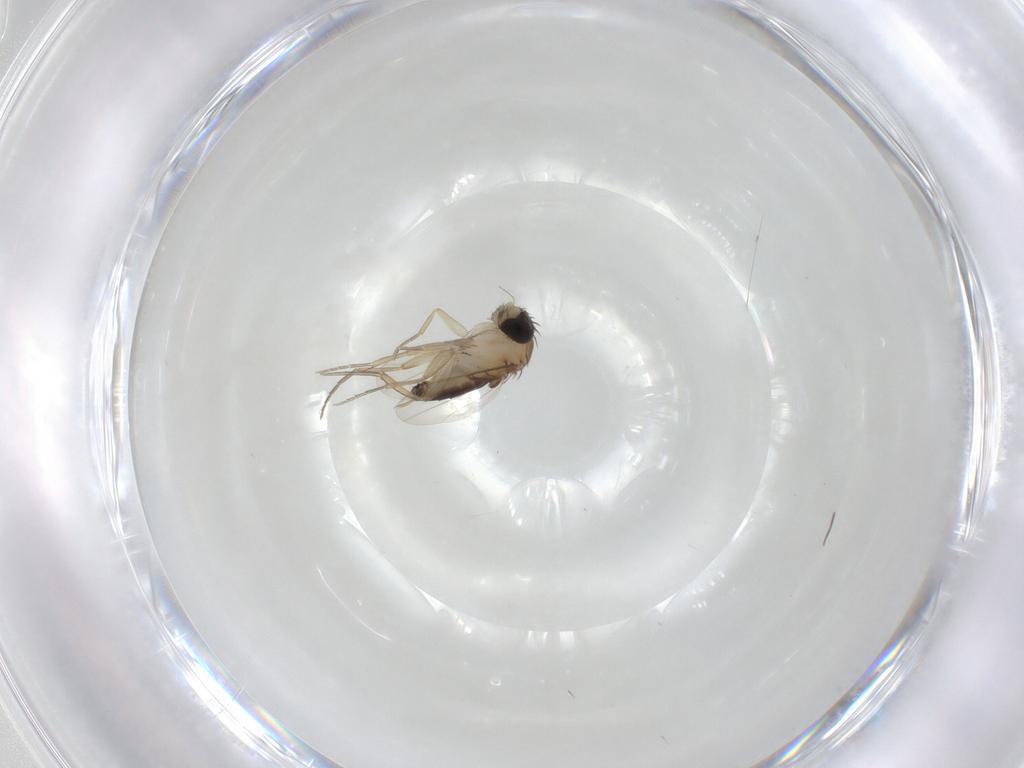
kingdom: Animalia
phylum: Arthropoda
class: Insecta
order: Diptera
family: Phoridae
